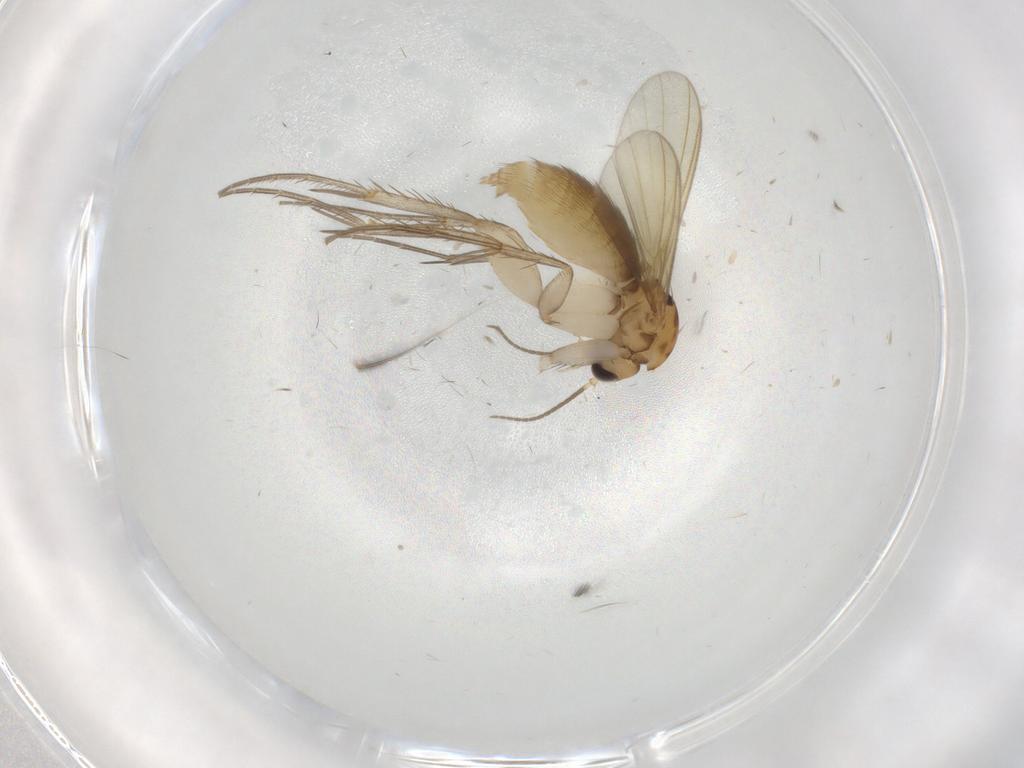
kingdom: Animalia
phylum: Arthropoda
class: Insecta
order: Diptera
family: Mycetophilidae
